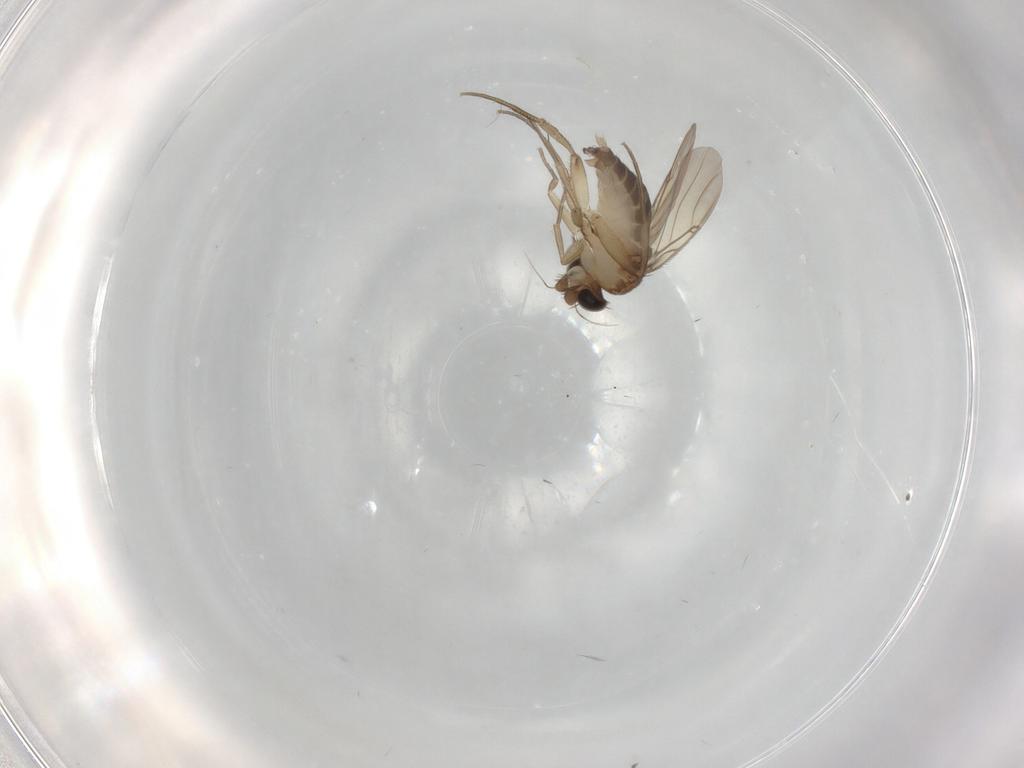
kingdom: Animalia
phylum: Arthropoda
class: Insecta
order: Diptera
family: Phoridae
